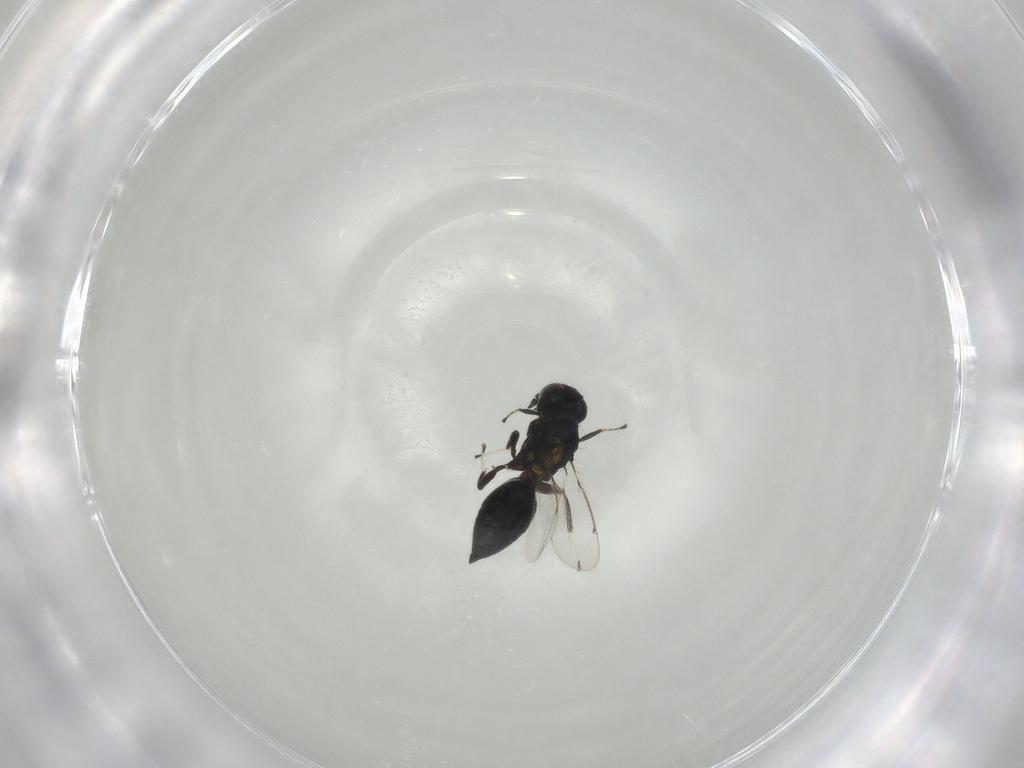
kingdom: Animalia
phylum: Arthropoda
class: Insecta
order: Hymenoptera
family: Eulophidae
